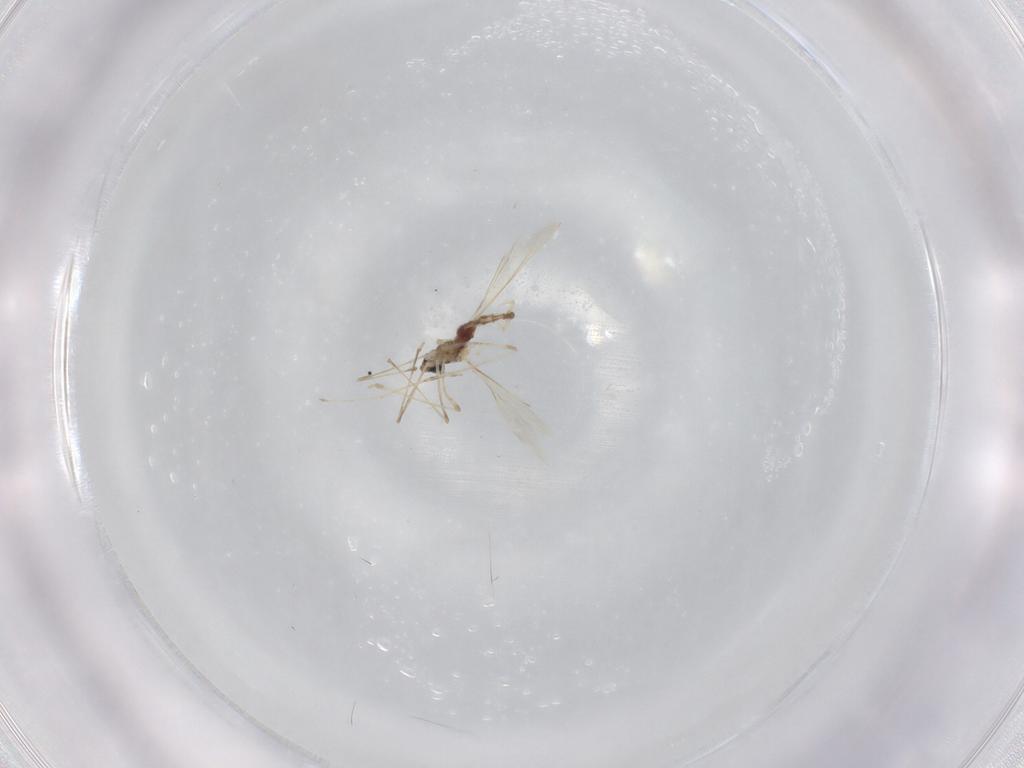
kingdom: Animalia
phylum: Arthropoda
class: Insecta
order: Diptera
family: Cecidomyiidae
